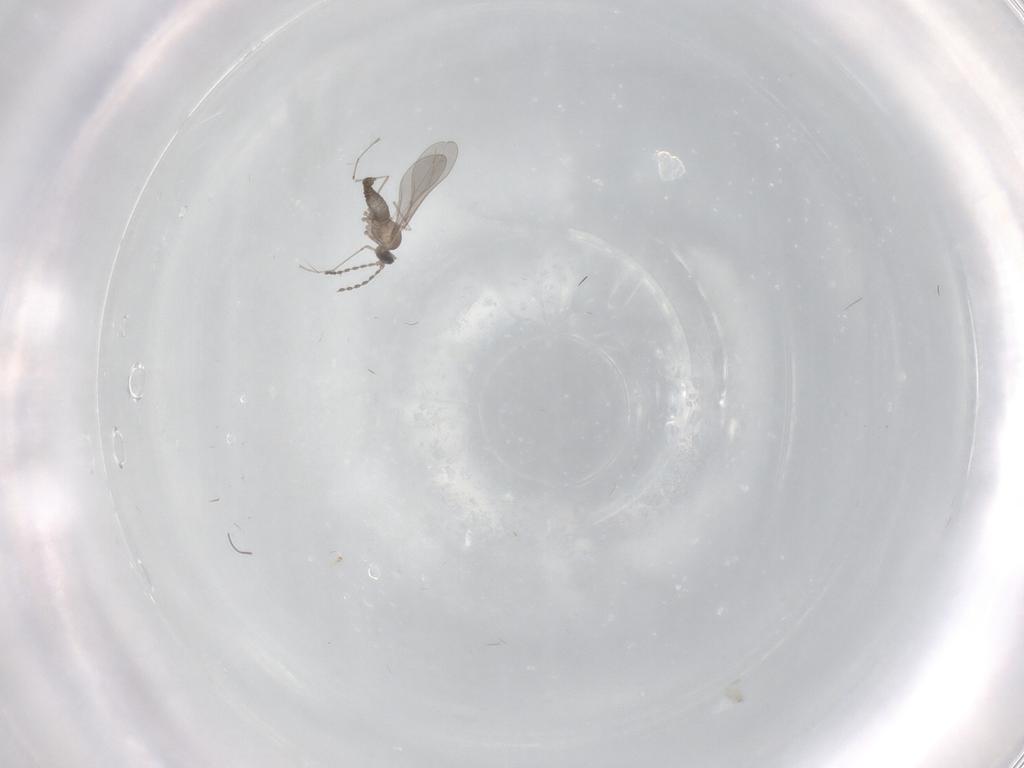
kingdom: Animalia
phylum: Arthropoda
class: Insecta
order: Diptera
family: Cecidomyiidae
